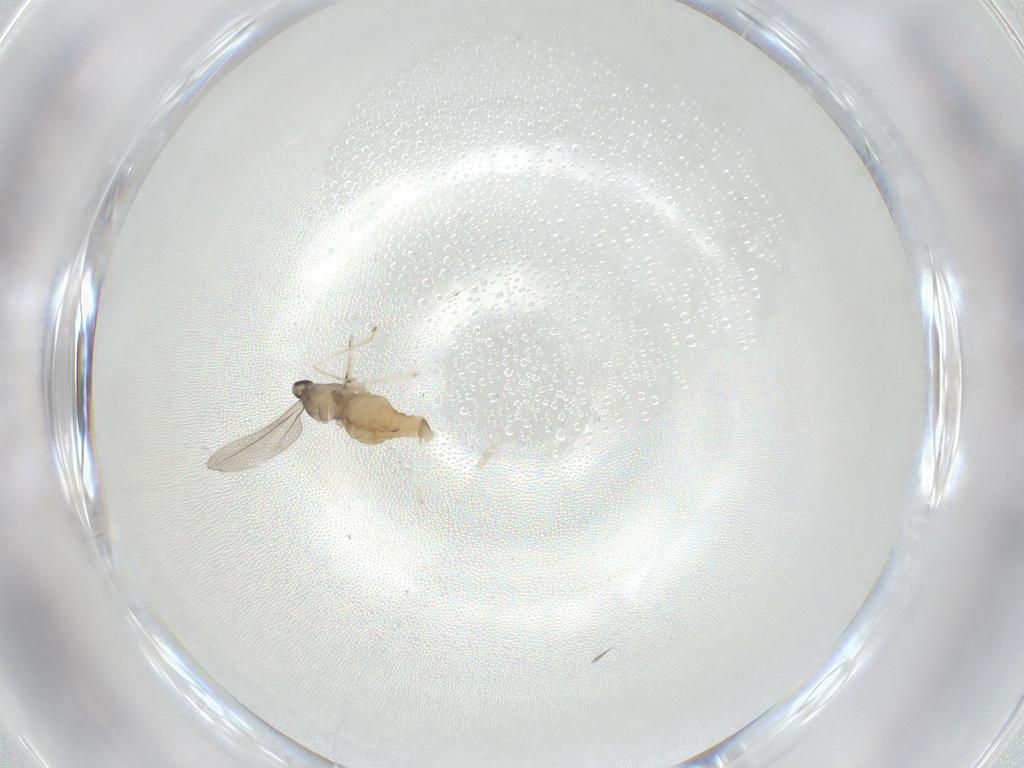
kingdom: Animalia
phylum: Arthropoda
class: Insecta
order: Diptera
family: Cecidomyiidae
